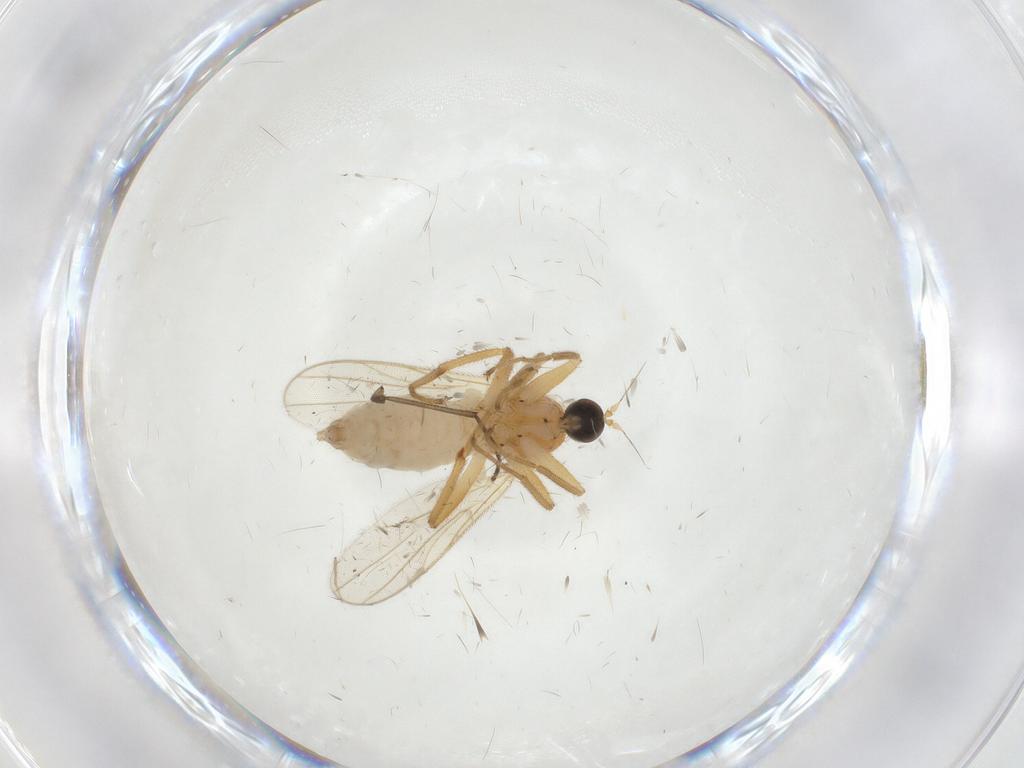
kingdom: Animalia
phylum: Arthropoda
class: Insecta
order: Diptera
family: Hybotidae
